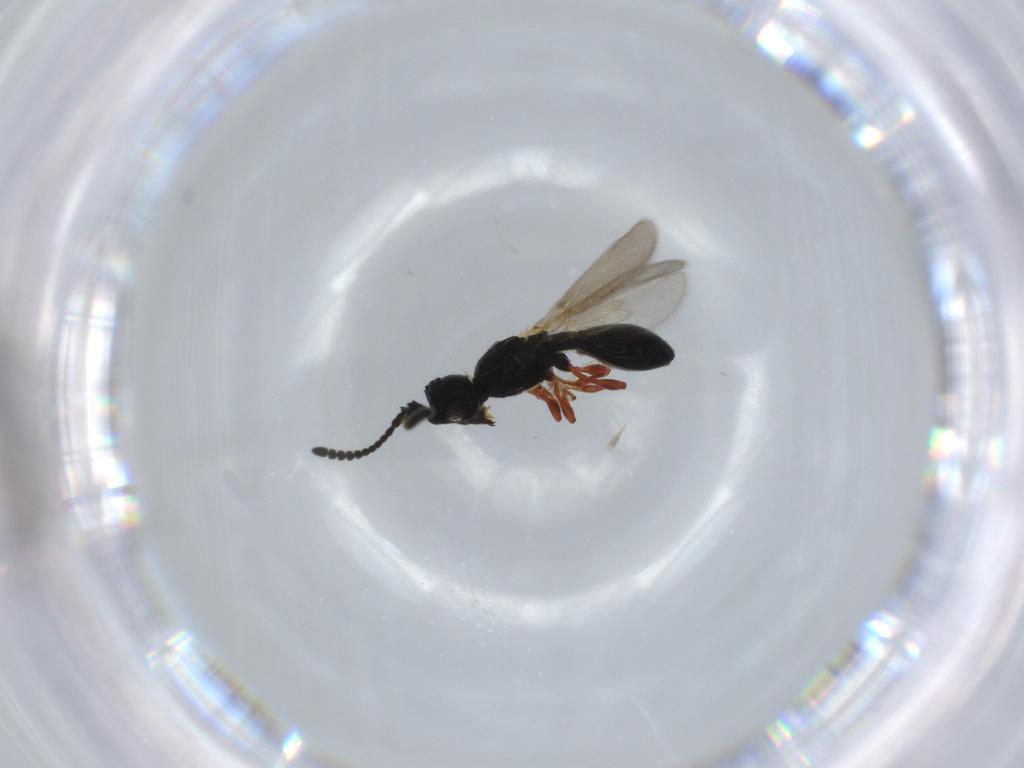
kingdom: Animalia
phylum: Arthropoda
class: Insecta
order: Hymenoptera
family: Diapriidae
